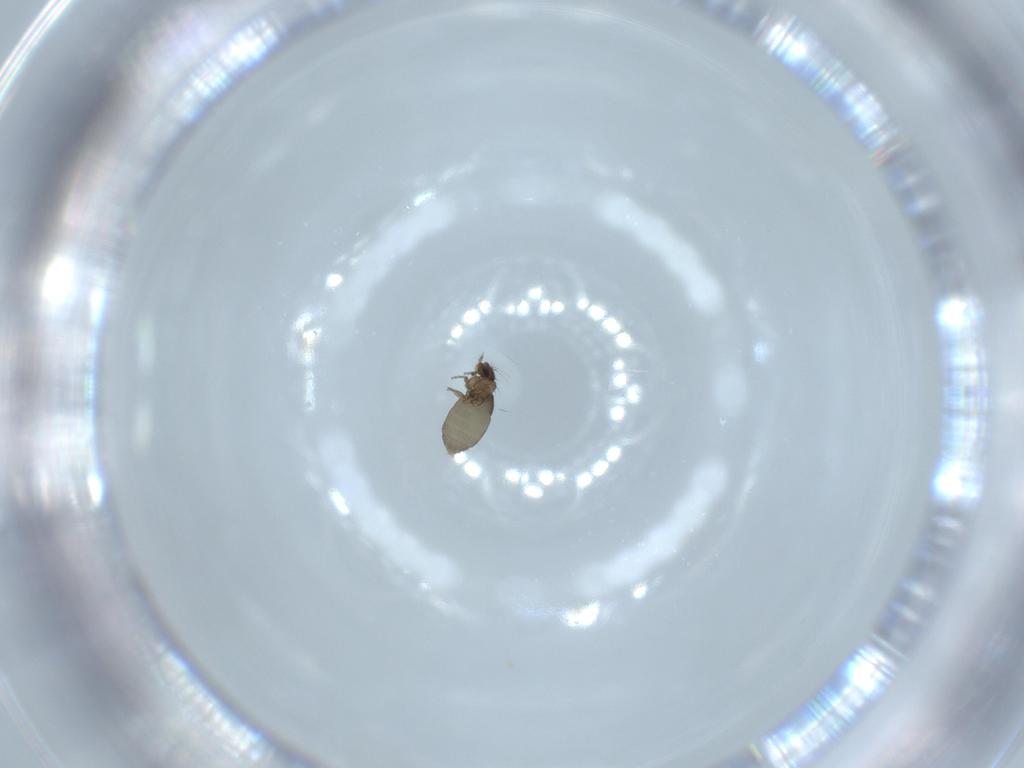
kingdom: Animalia
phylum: Arthropoda
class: Insecta
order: Diptera
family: Phoridae
